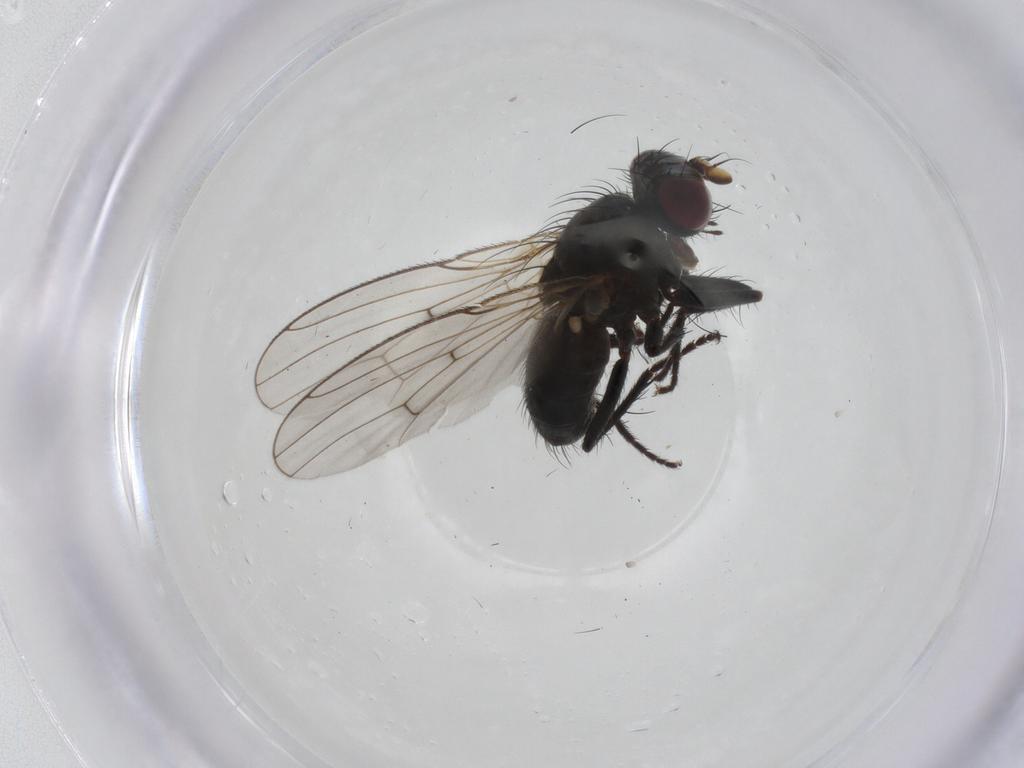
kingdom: Animalia
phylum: Arthropoda
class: Insecta
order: Diptera
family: Muscidae
